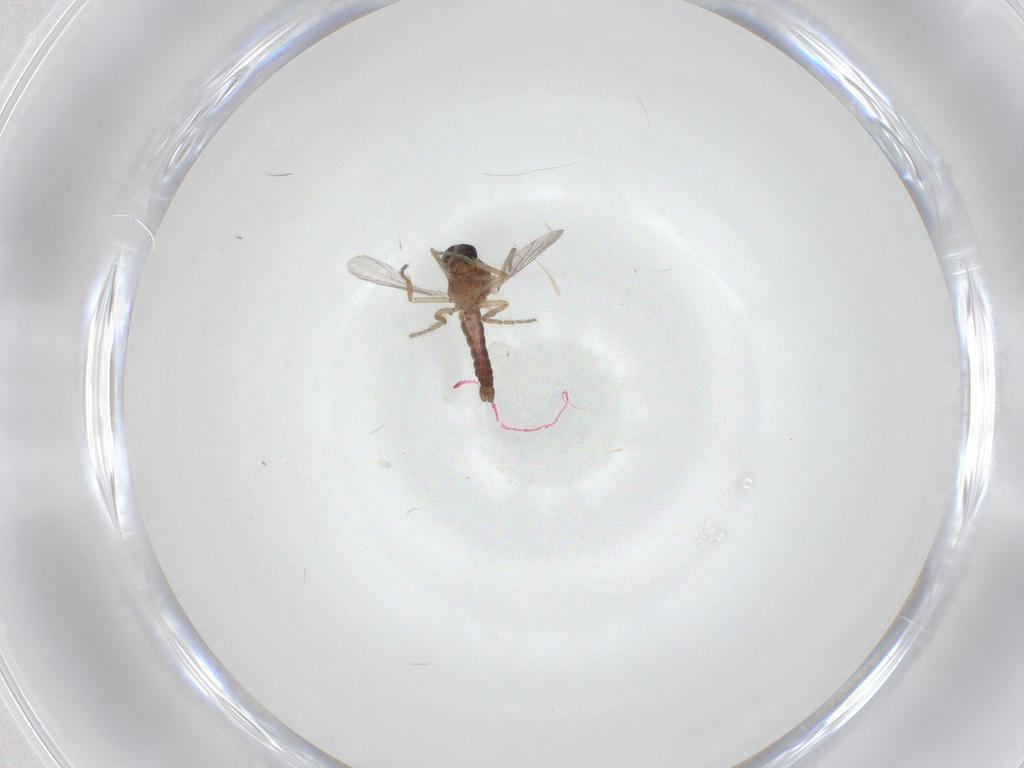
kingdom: Animalia
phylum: Arthropoda
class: Insecta
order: Diptera
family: Ceratopogonidae
